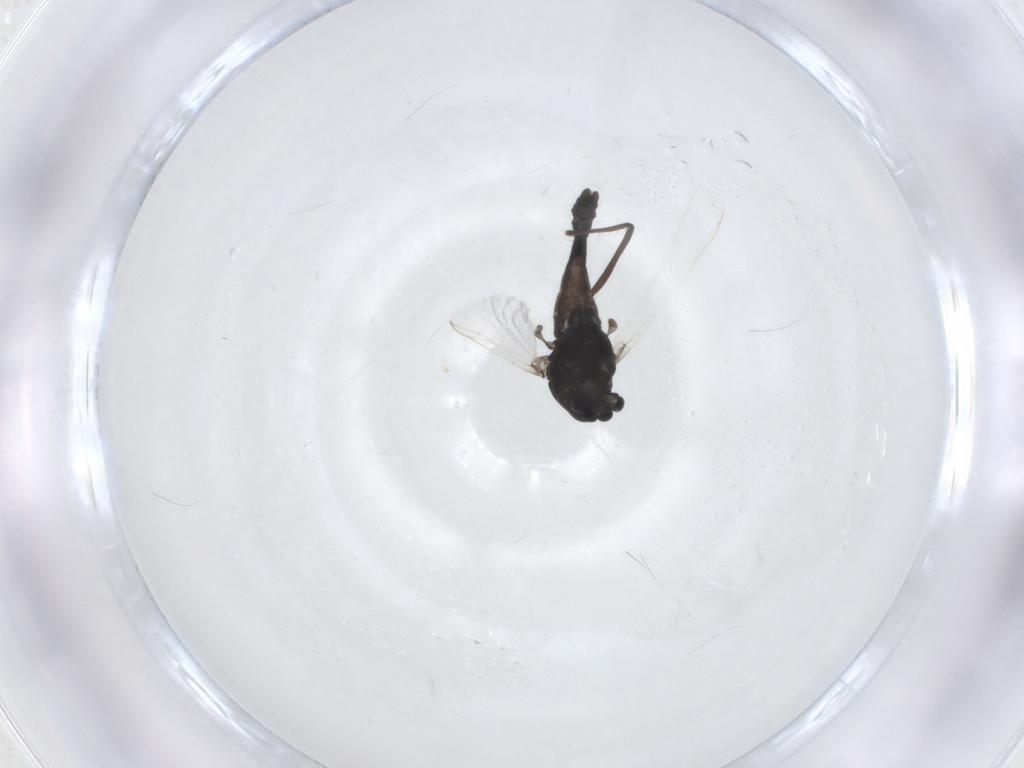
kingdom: Animalia
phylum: Arthropoda
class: Insecta
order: Diptera
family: Chironomidae
